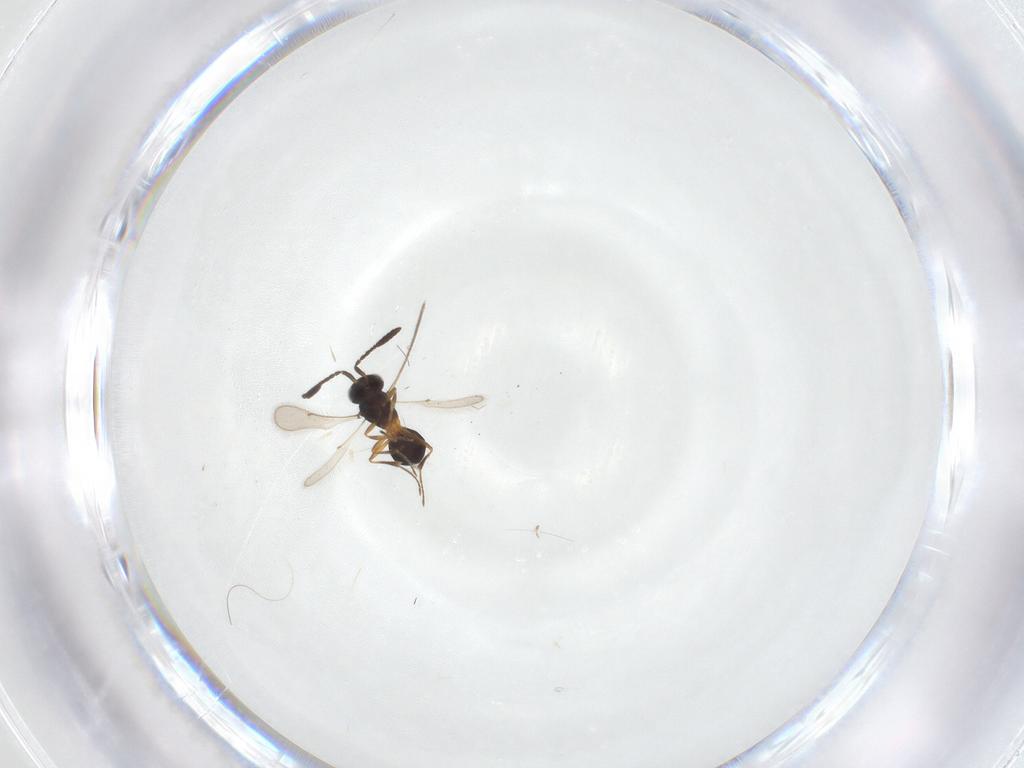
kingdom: Animalia
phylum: Arthropoda
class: Insecta
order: Hymenoptera
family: Scelionidae
